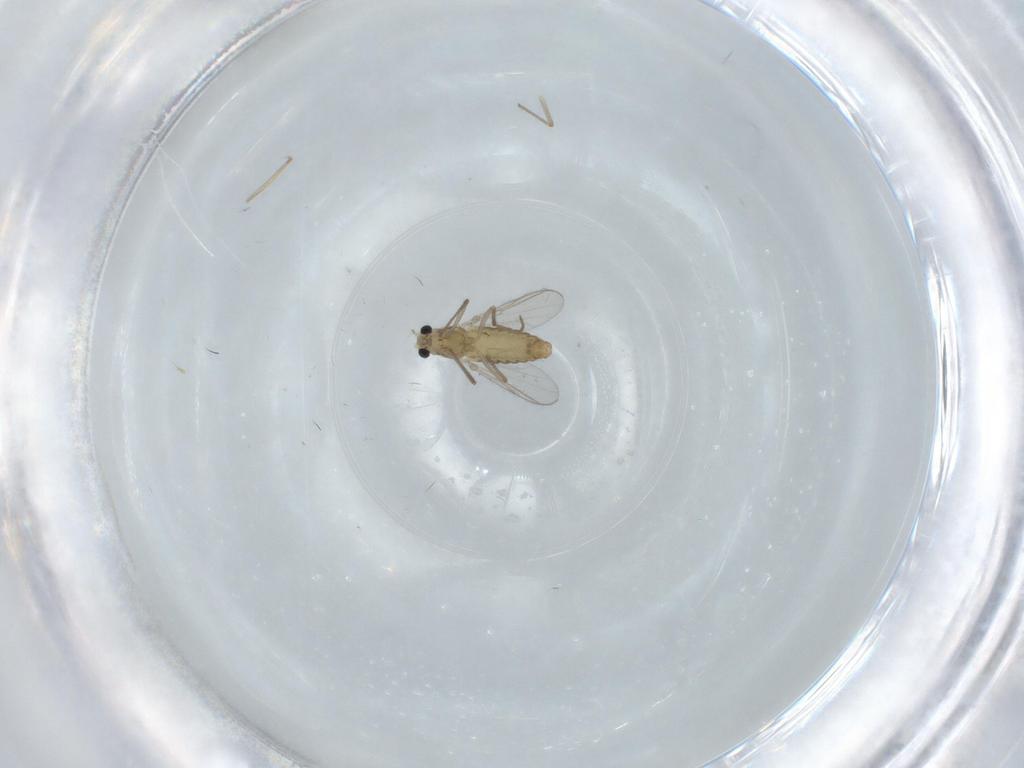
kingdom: Animalia
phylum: Arthropoda
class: Insecta
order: Diptera
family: Chironomidae
